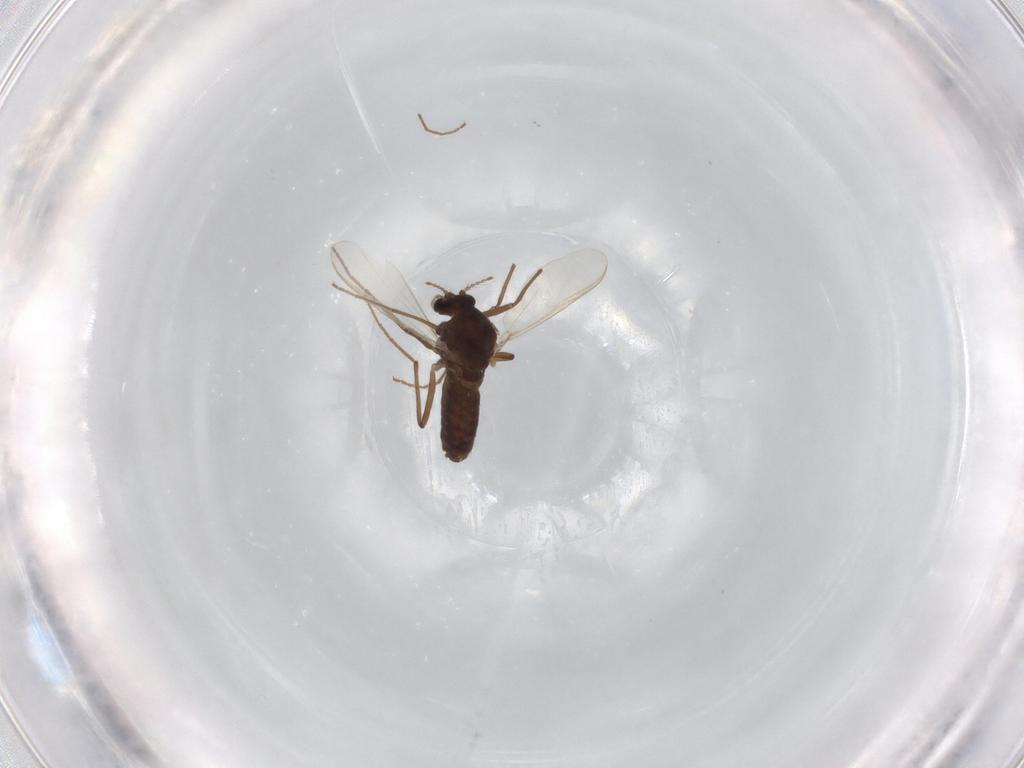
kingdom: Animalia
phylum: Arthropoda
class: Insecta
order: Diptera
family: Chironomidae
